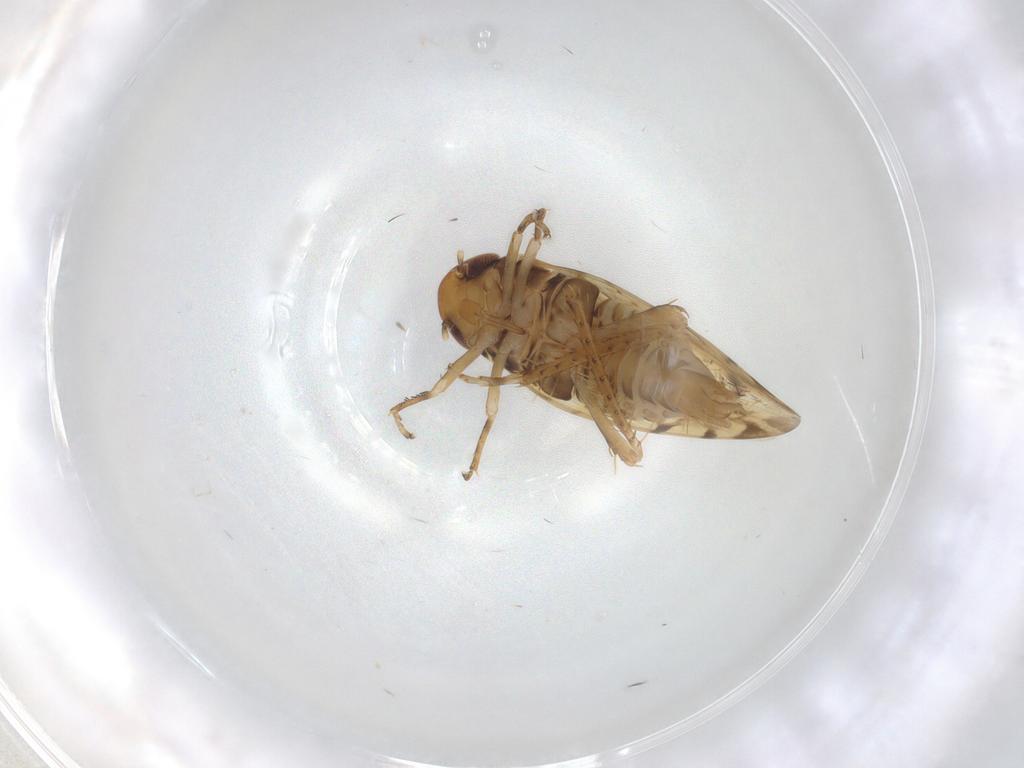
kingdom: Animalia
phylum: Arthropoda
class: Insecta
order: Hemiptera
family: Cicadellidae
